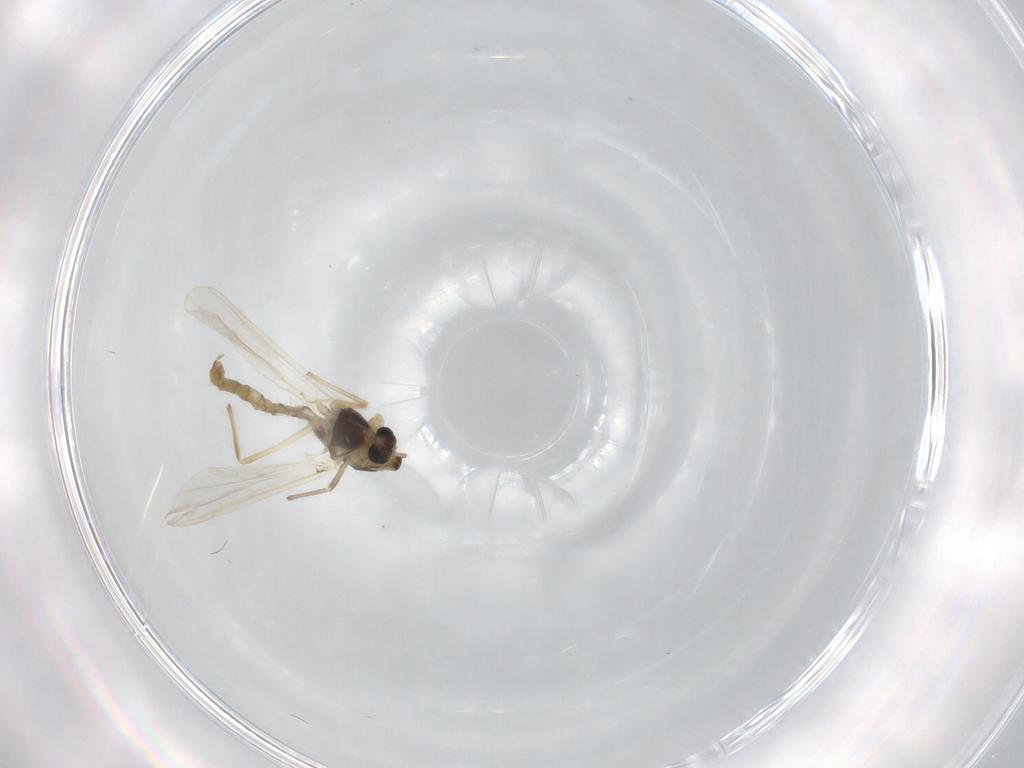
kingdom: Animalia
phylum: Arthropoda
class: Insecta
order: Diptera
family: Chironomidae
